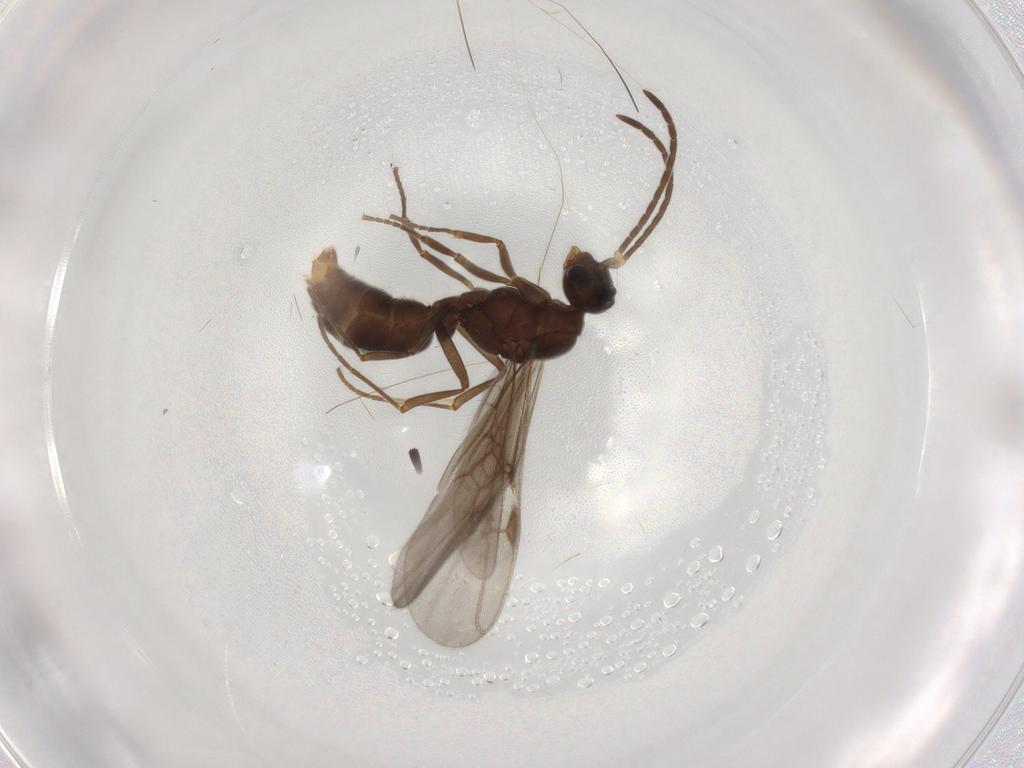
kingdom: Animalia
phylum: Arthropoda
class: Insecta
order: Hymenoptera
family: Formicidae
